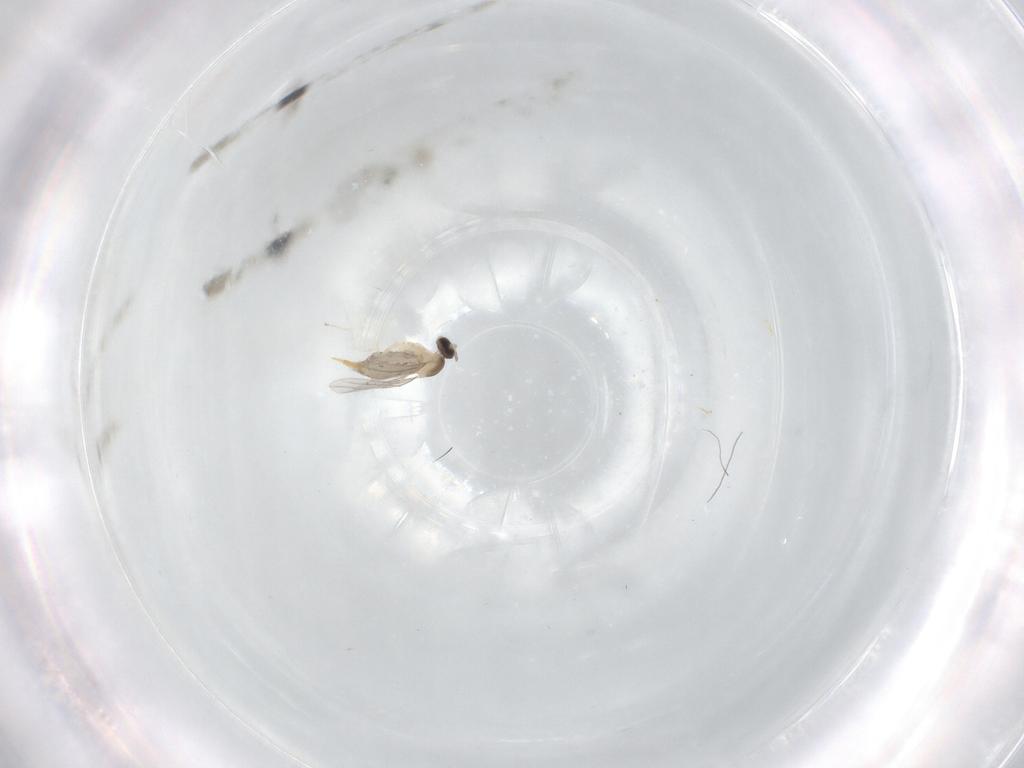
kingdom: Animalia
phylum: Arthropoda
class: Insecta
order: Diptera
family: Cecidomyiidae
